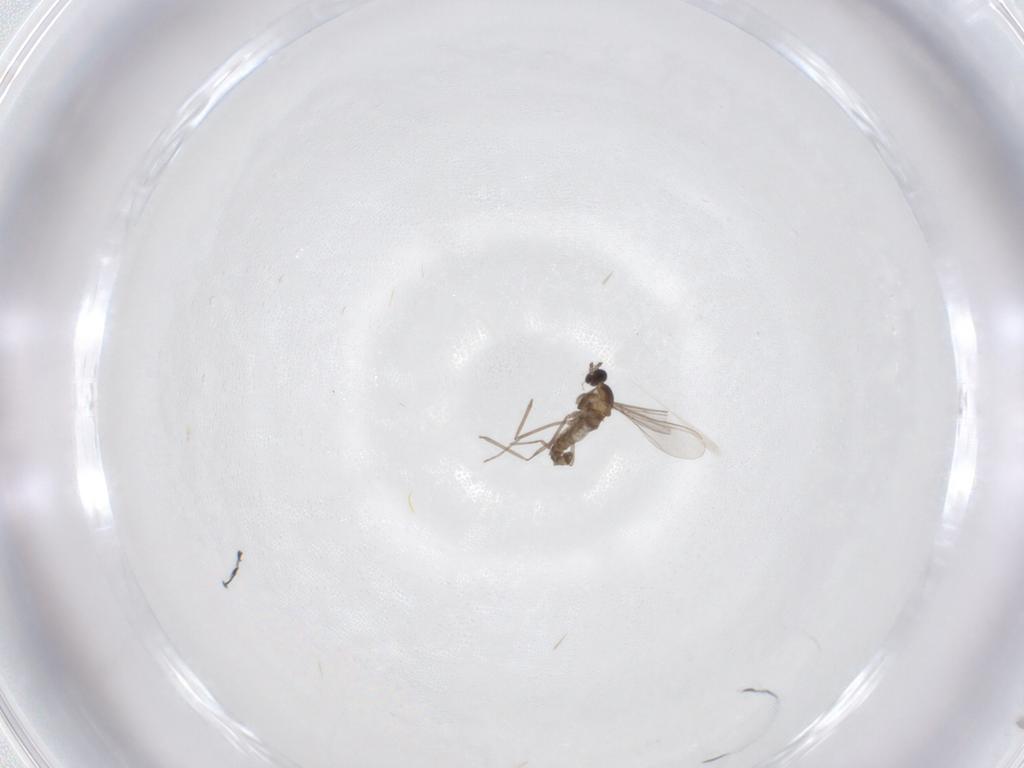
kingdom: Animalia
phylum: Arthropoda
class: Insecta
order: Diptera
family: Cecidomyiidae
